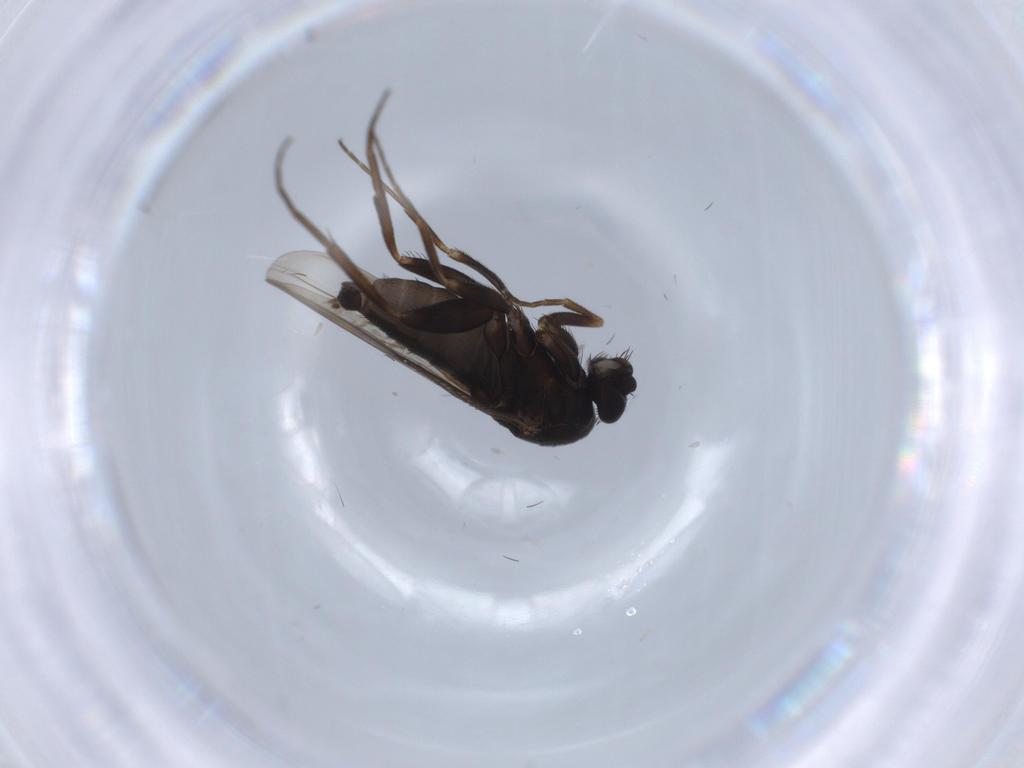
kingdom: Animalia
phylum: Arthropoda
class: Insecta
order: Diptera
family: Phoridae
